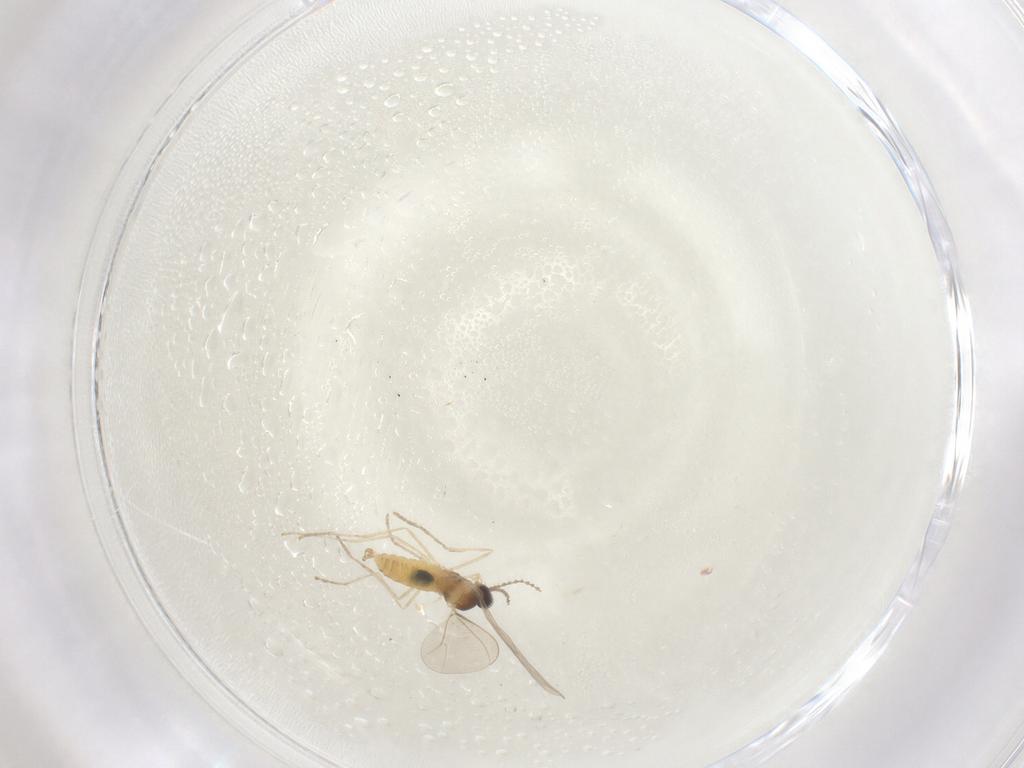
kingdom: Animalia
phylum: Arthropoda
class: Insecta
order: Diptera
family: Cecidomyiidae
